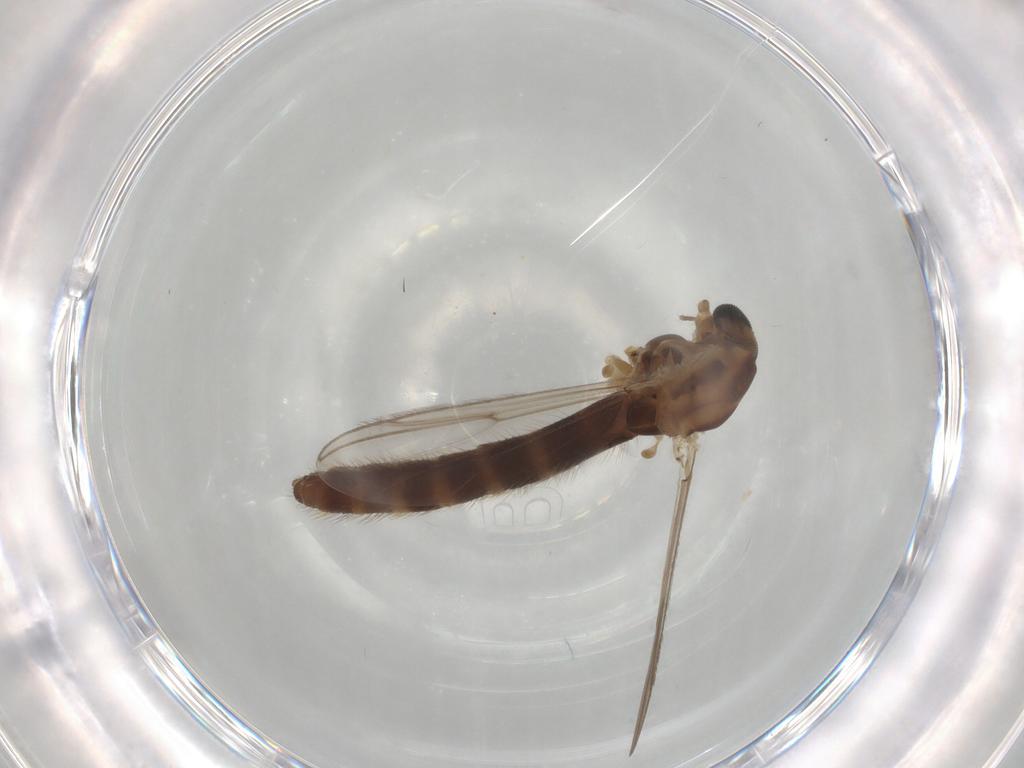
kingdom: Animalia
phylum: Arthropoda
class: Insecta
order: Diptera
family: Chironomidae
